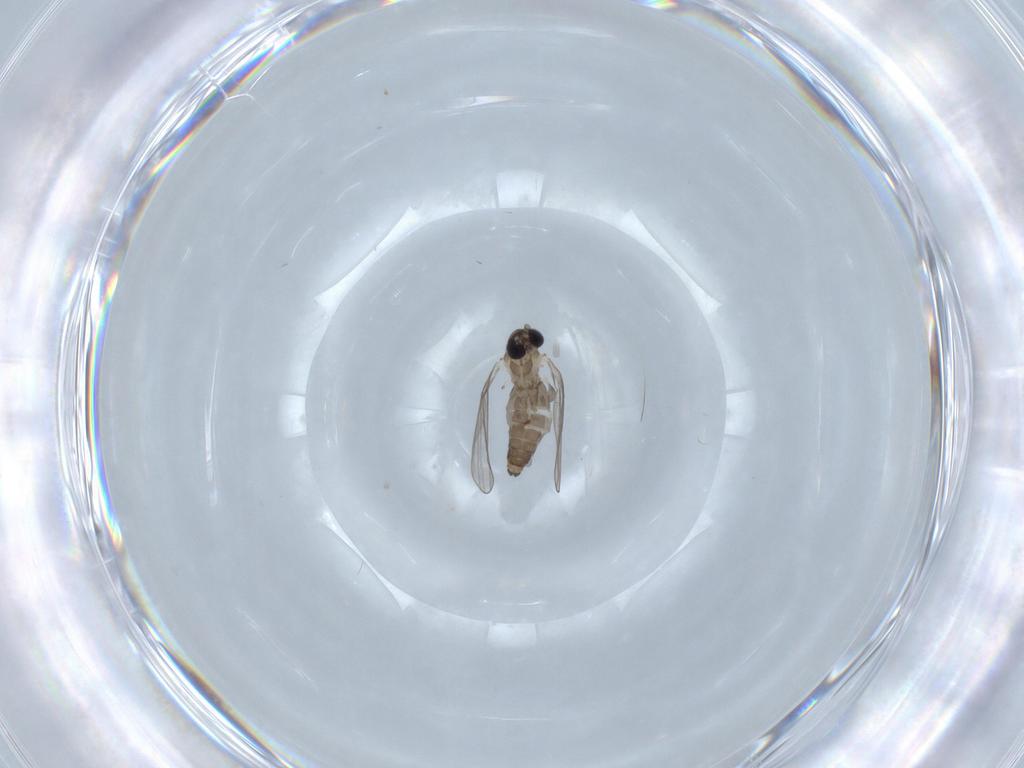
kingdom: Animalia
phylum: Arthropoda
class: Insecta
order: Diptera
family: Psychodidae
